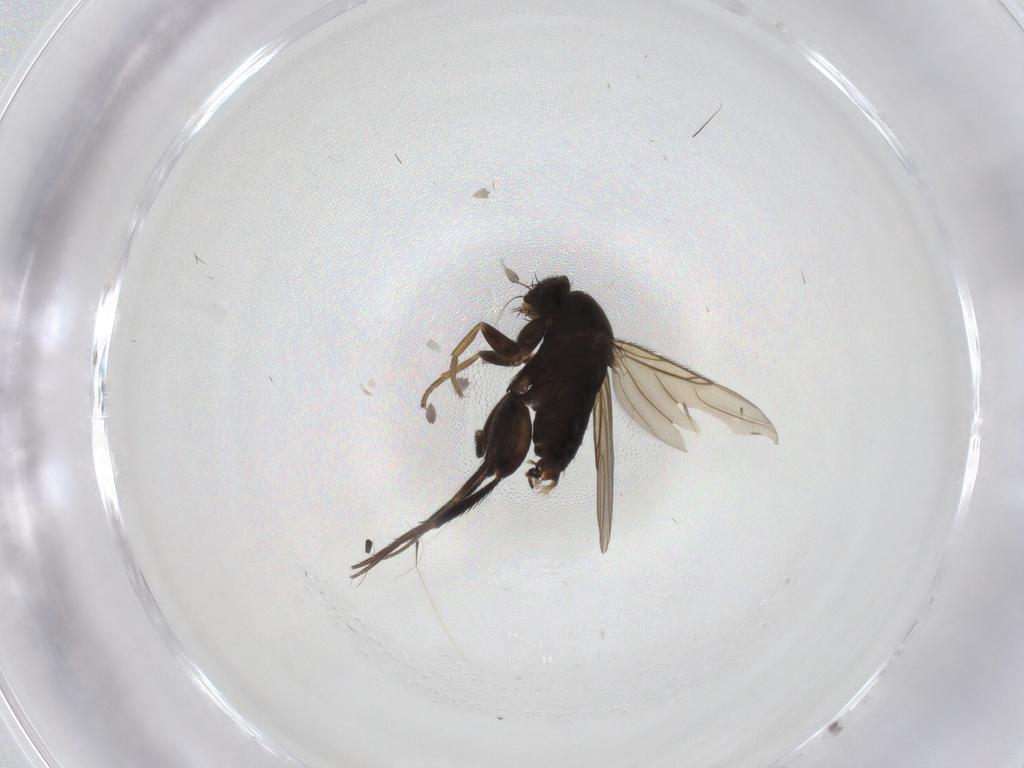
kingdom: Animalia
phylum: Arthropoda
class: Insecta
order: Diptera
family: Phoridae
